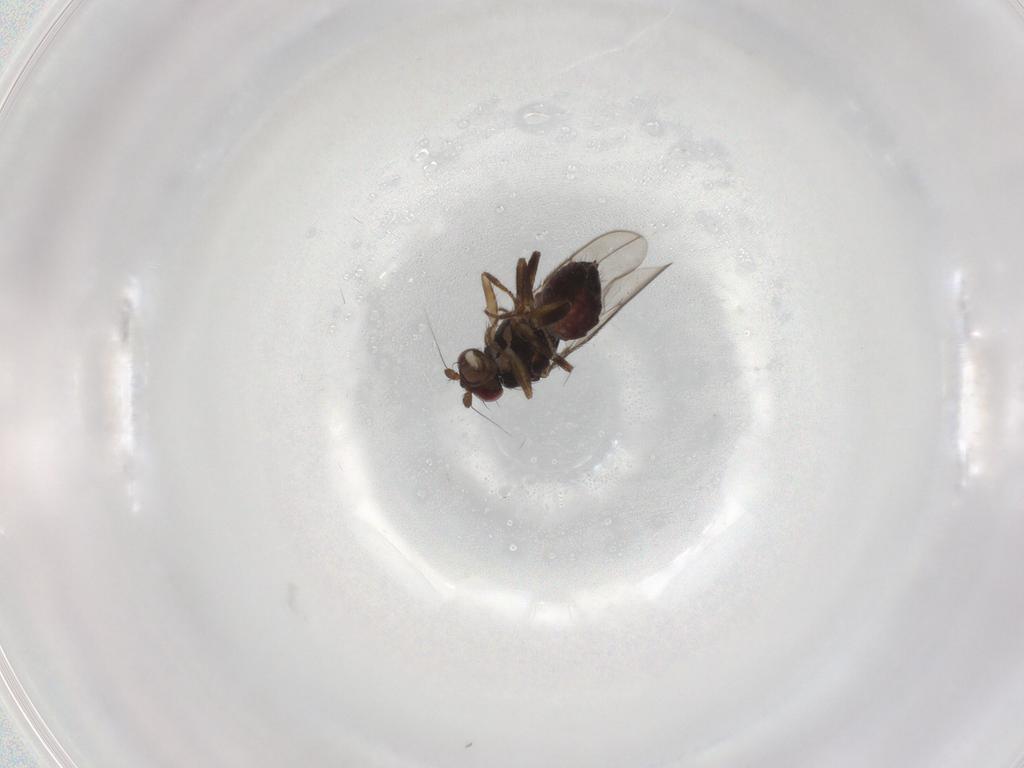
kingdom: Animalia
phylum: Arthropoda
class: Insecta
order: Diptera
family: Sphaeroceridae
